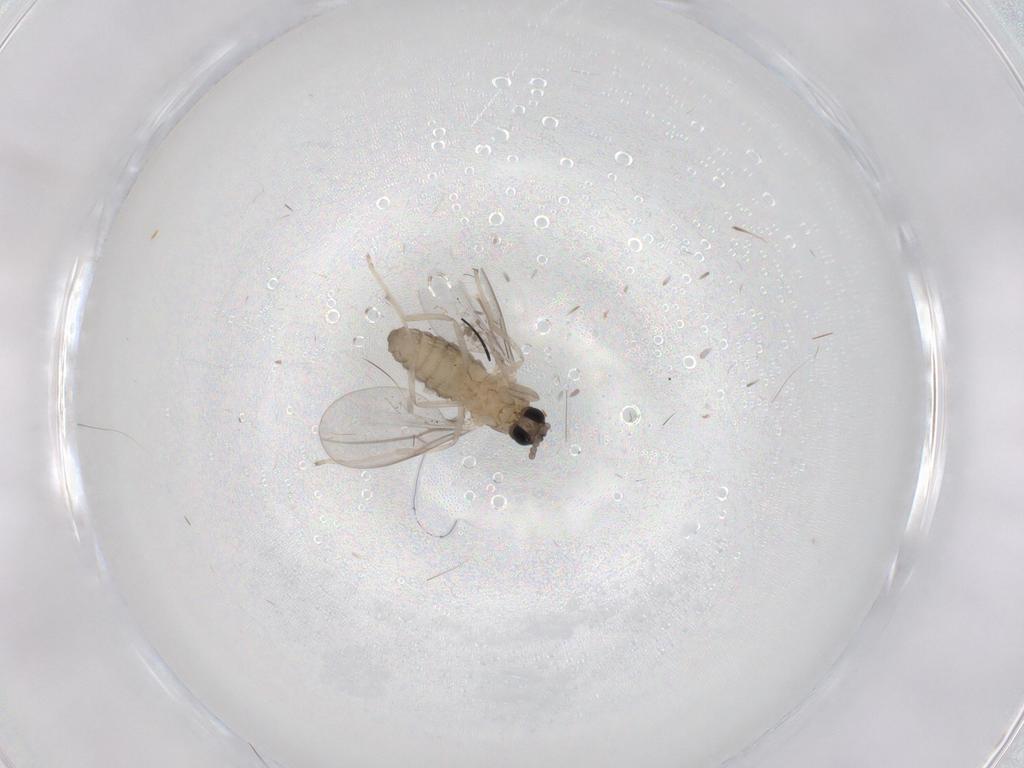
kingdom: Animalia
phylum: Arthropoda
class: Insecta
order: Diptera
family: Cecidomyiidae
